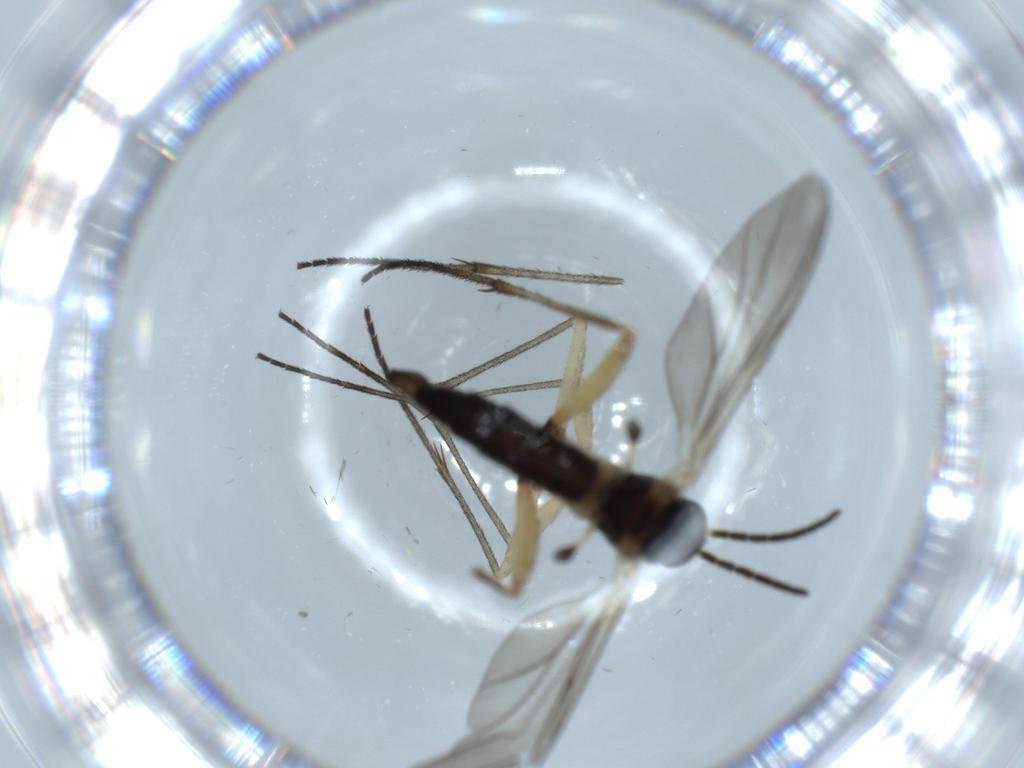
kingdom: Animalia
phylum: Arthropoda
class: Insecta
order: Diptera
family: Sciaridae
